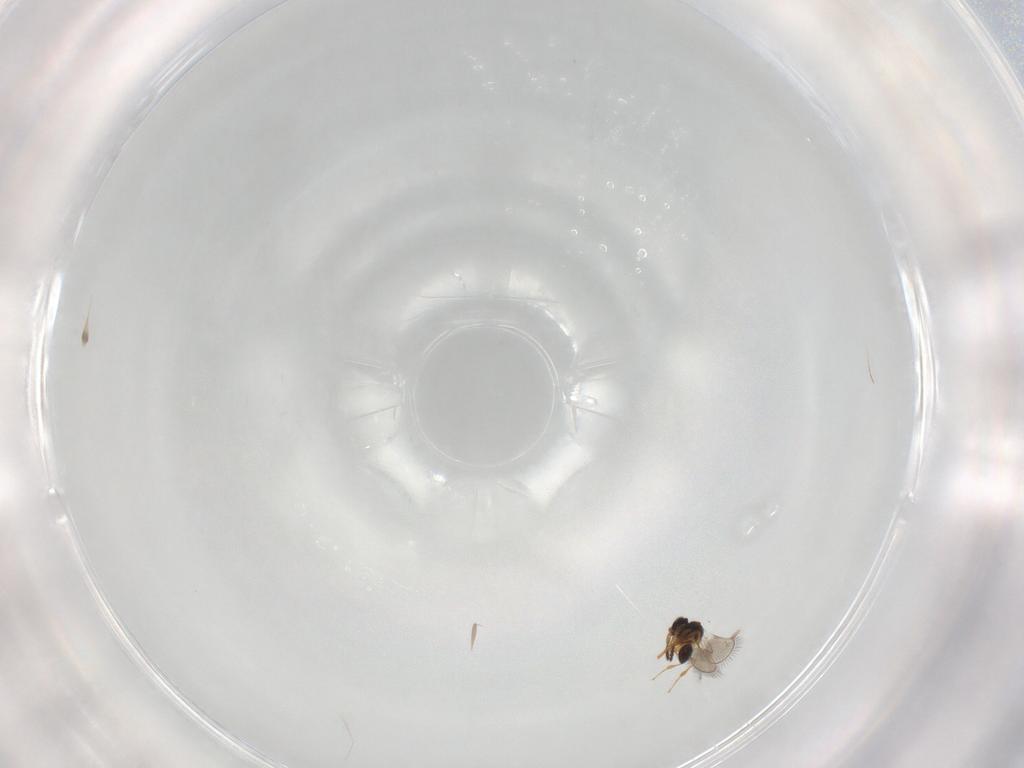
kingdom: Animalia
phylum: Arthropoda
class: Insecta
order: Hymenoptera
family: Platygastridae
